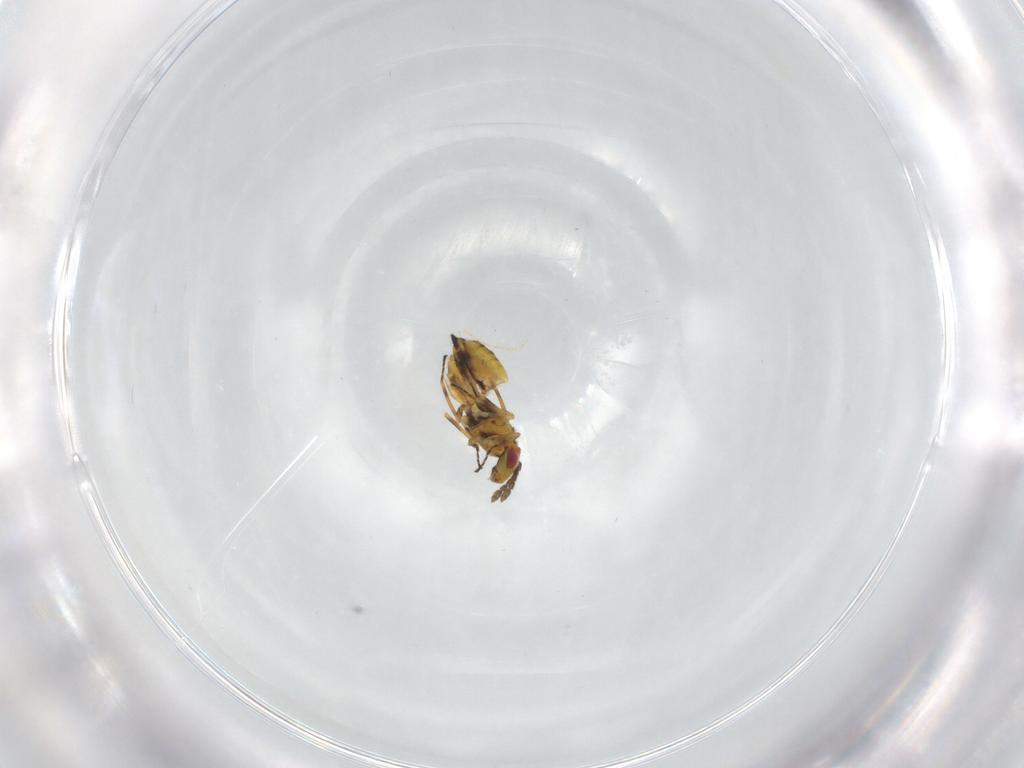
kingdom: Animalia
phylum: Arthropoda
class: Insecta
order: Hymenoptera
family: Eulophidae
